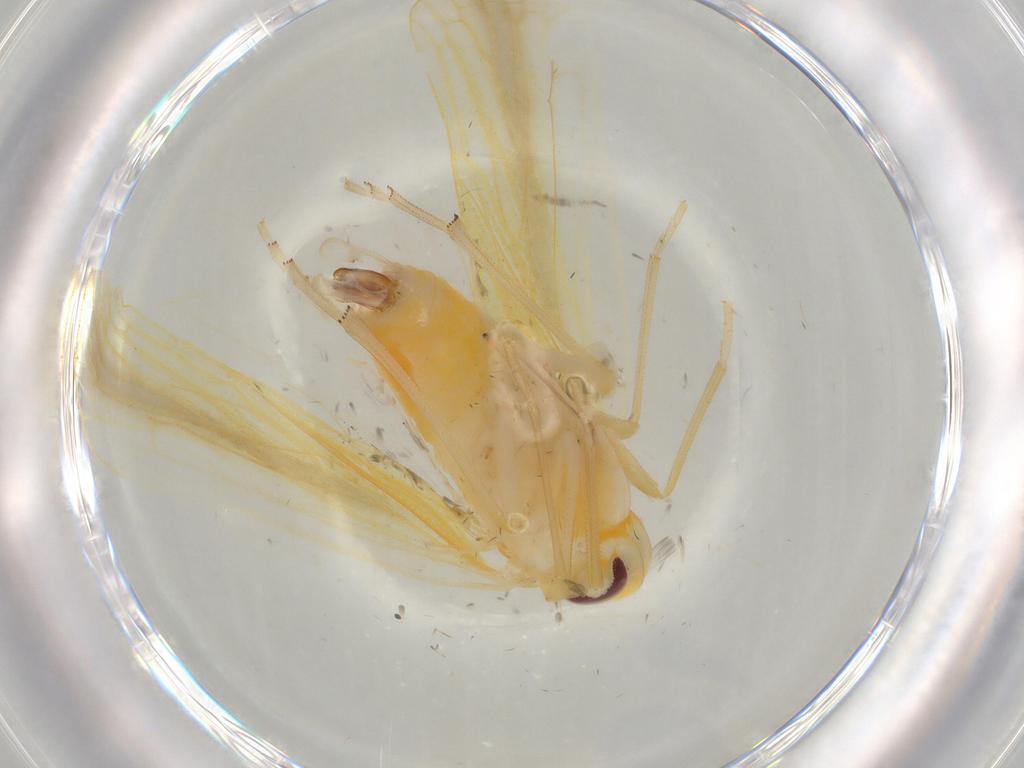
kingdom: Animalia
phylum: Arthropoda
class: Insecta
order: Hemiptera
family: Derbidae
